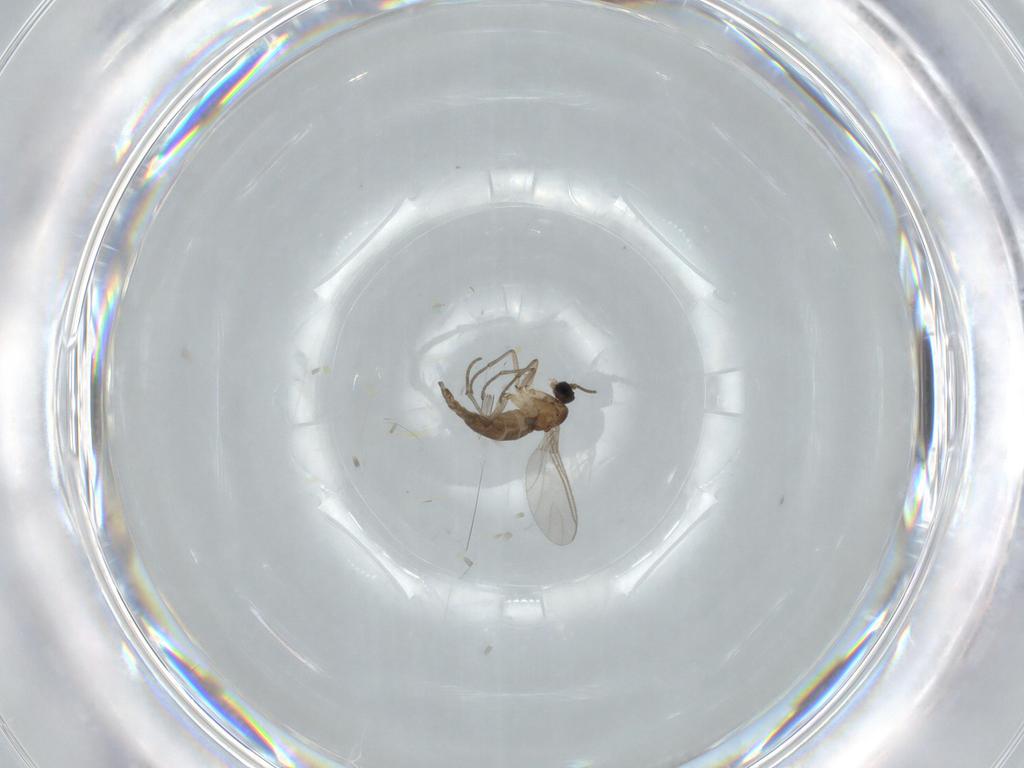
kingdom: Animalia
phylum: Arthropoda
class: Insecta
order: Diptera
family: Sciaridae
